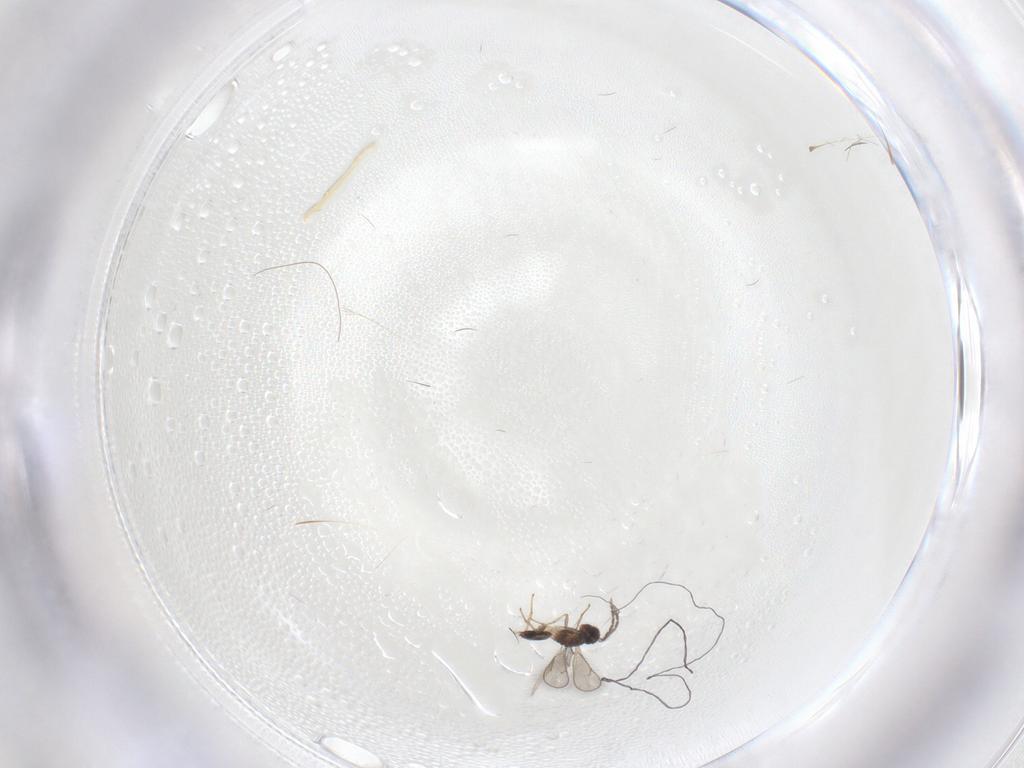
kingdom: Animalia
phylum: Arthropoda
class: Insecta
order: Hymenoptera
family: Eulophidae
